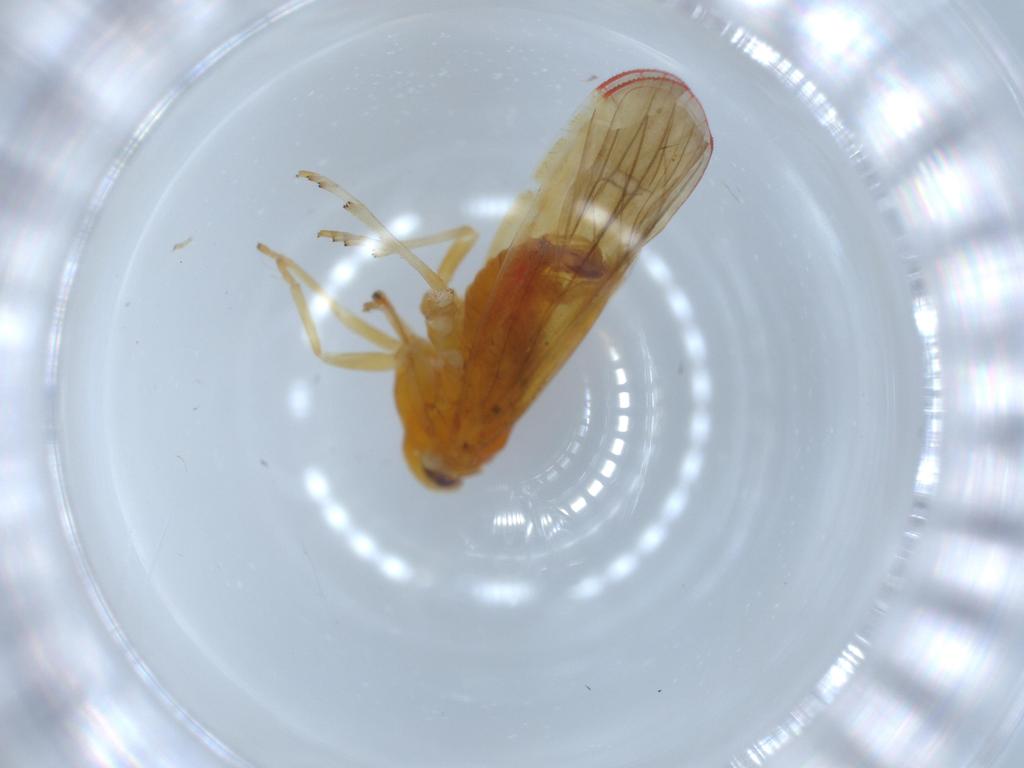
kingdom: Animalia
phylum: Arthropoda
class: Insecta
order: Hemiptera
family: Derbidae
